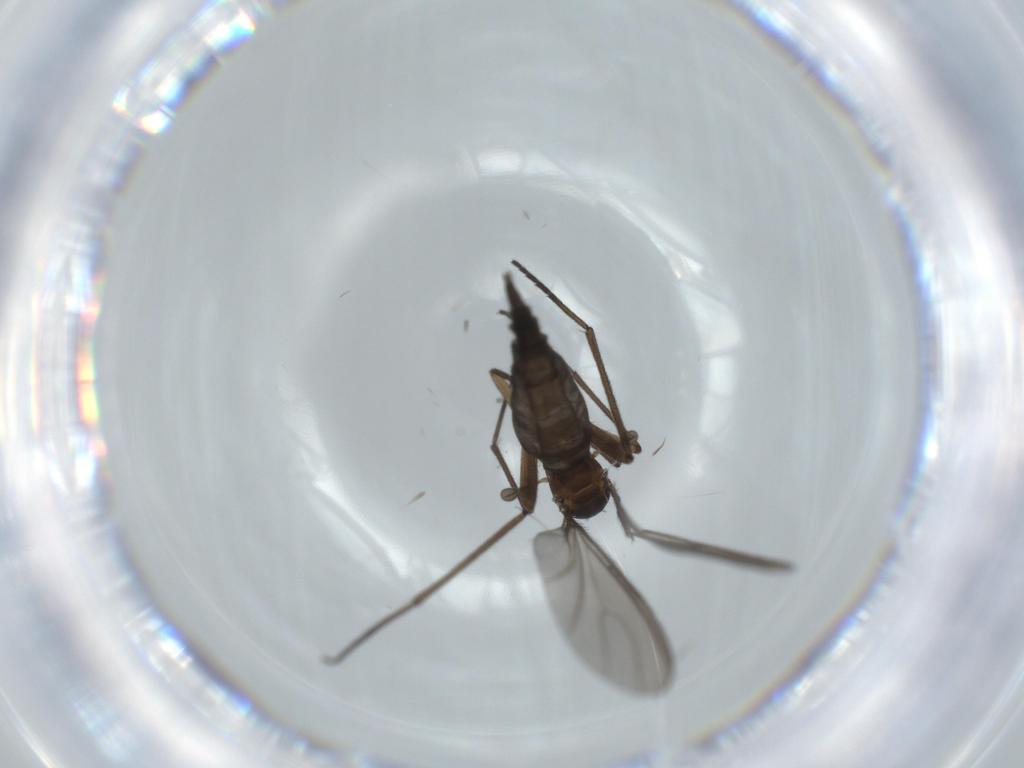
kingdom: Animalia
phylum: Arthropoda
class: Insecta
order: Diptera
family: Sciaridae
